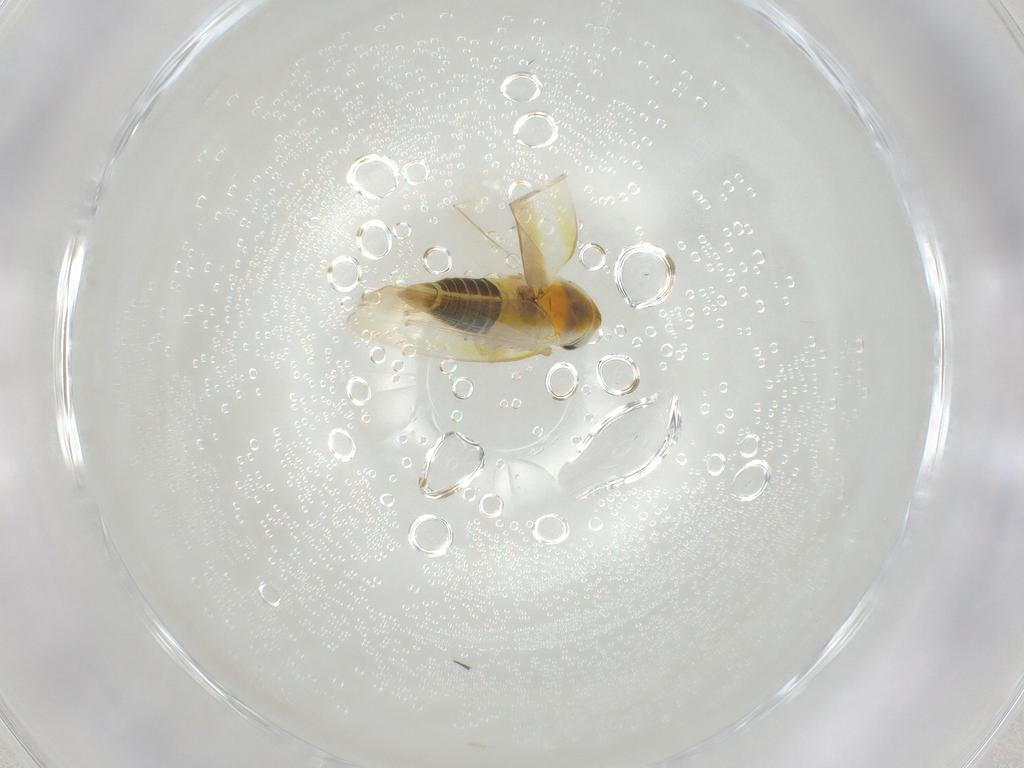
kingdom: Animalia
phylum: Arthropoda
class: Insecta
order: Hemiptera
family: Cicadellidae
